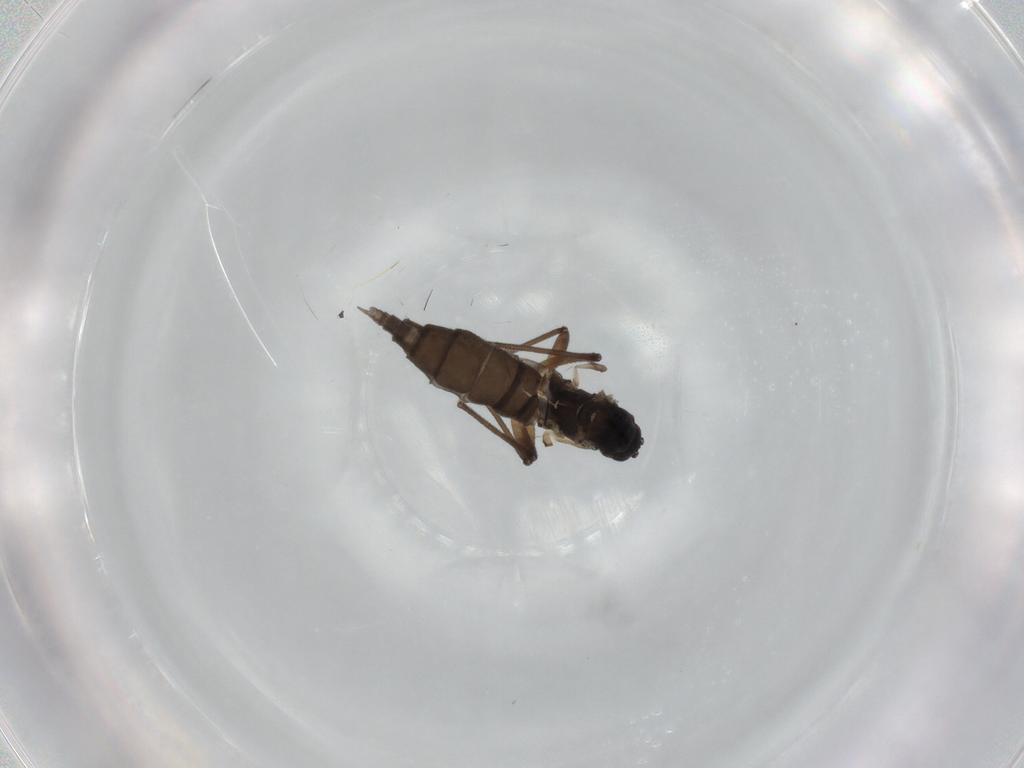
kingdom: Animalia
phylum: Arthropoda
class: Insecta
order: Diptera
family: Sciaridae
